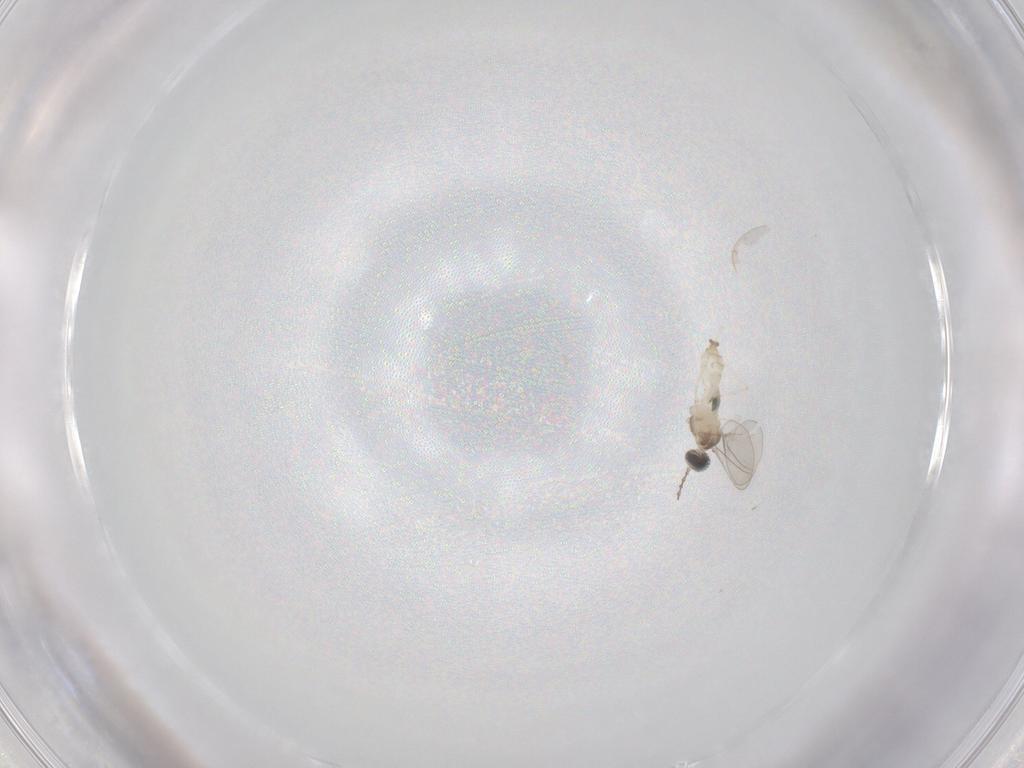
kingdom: Animalia
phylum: Arthropoda
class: Insecta
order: Diptera
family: Cecidomyiidae
